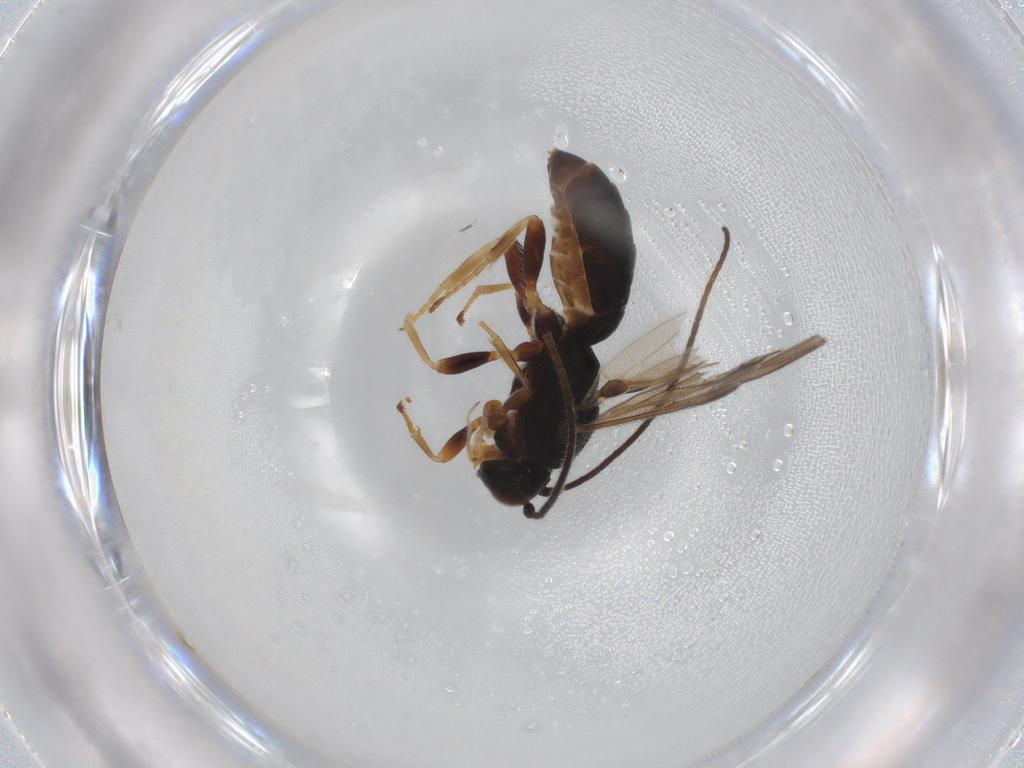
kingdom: Animalia
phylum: Arthropoda
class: Insecta
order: Hymenoptera
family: Braconidae
